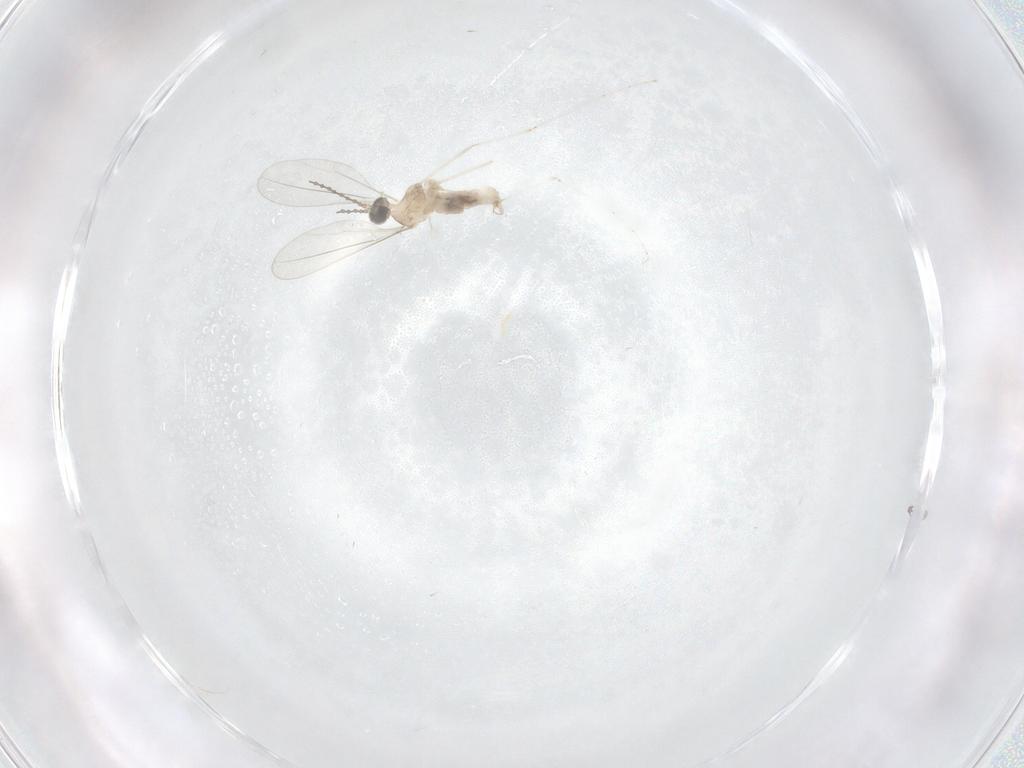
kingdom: Animalia
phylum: Arthropoda
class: Insecta
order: Diptera
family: Cecidomyiidae
